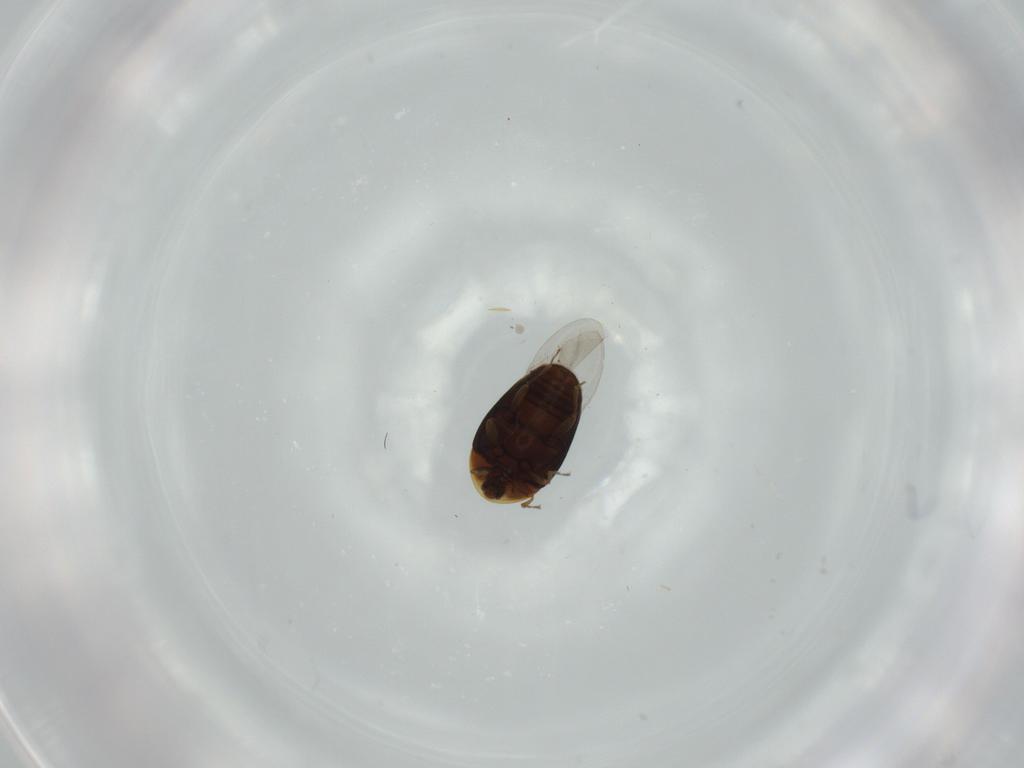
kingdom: Animalia
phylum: Arthropoda
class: Insecta
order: Coleoptera
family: Corylophidae
